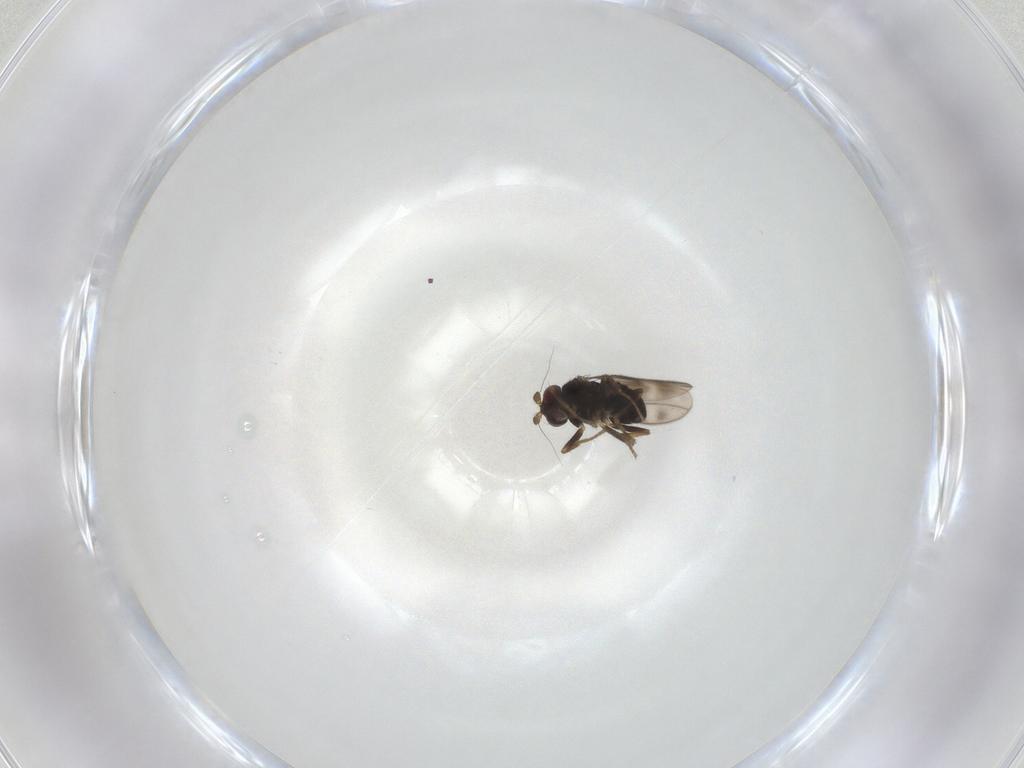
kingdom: Animalia
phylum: Arthropoda
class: Insecta
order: Diptera
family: Sphaeroceridae
